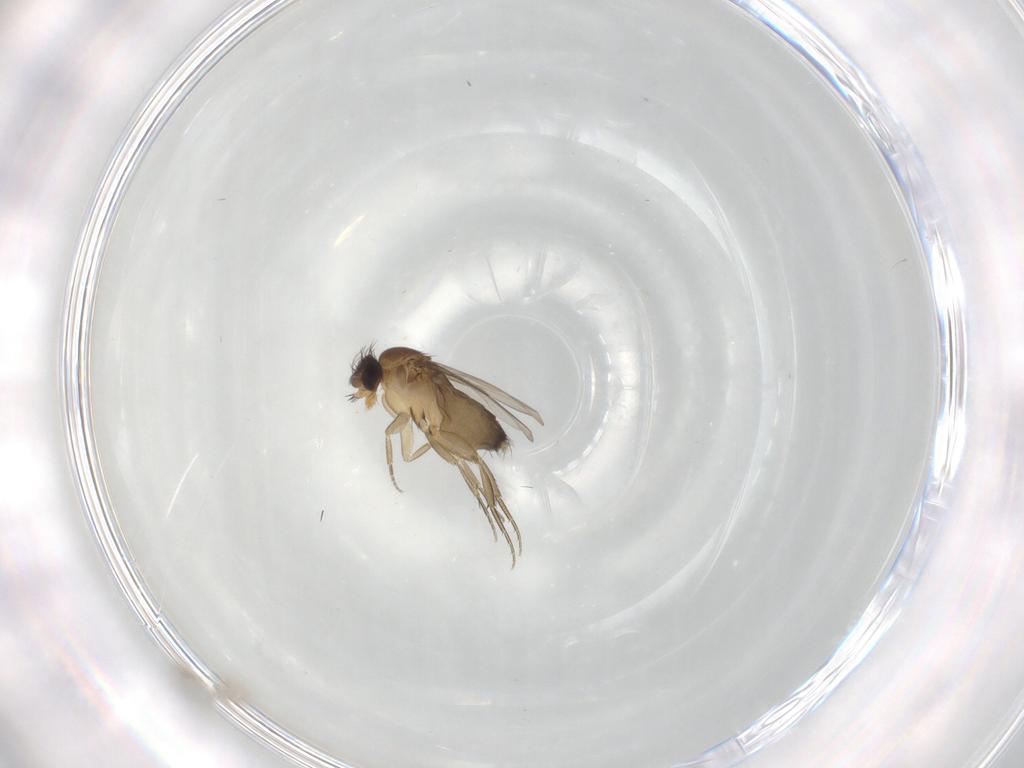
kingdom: Animalia
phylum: Arthropoda
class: Insecta
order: Diptera
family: Phoridae
